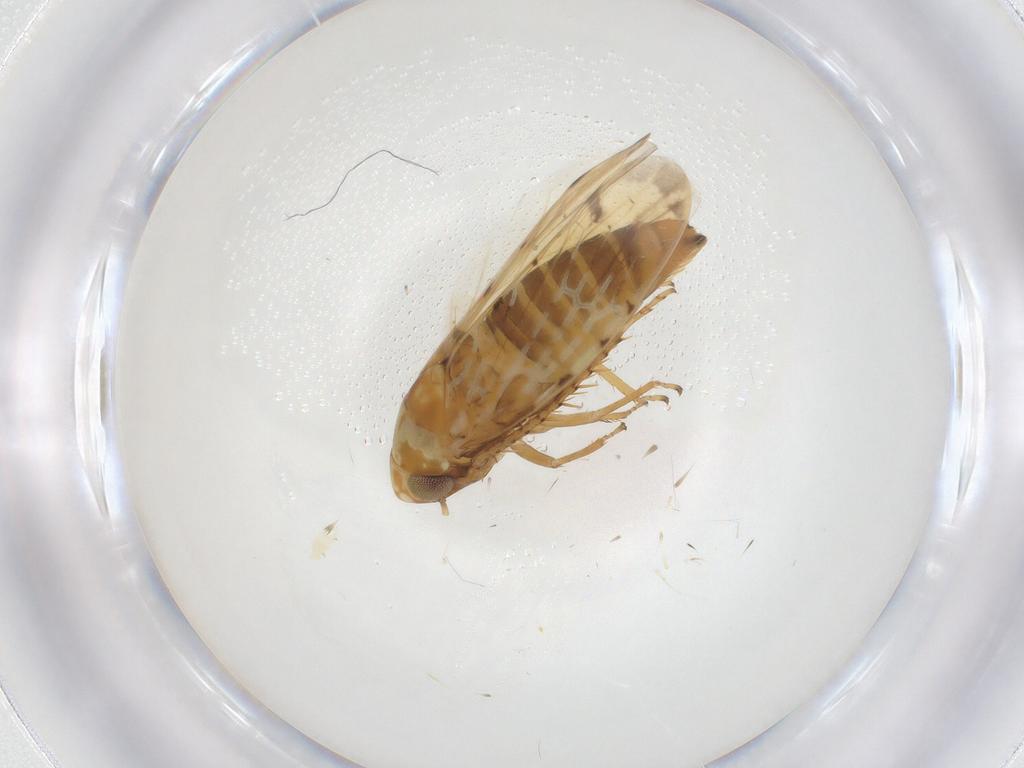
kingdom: Animalia
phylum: Arthropoda
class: Insecta
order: Hemiptera
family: Cicadellidae
